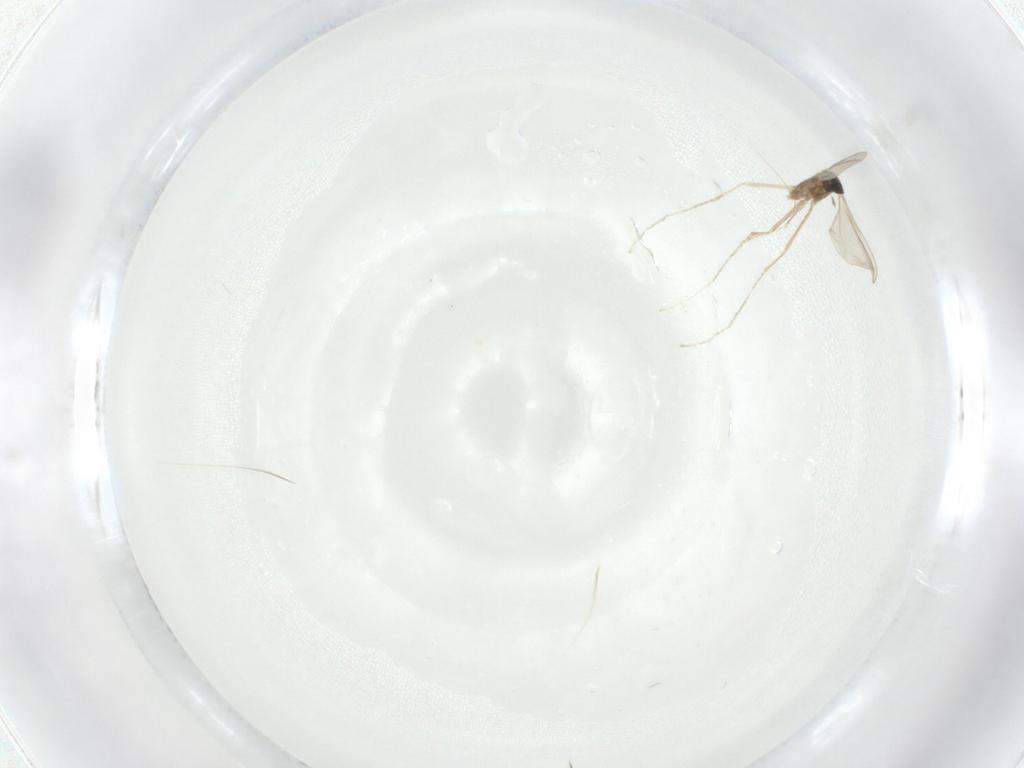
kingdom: Animalia
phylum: Arthropoda
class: Insecta
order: Diptera
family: Cecidomyiidae
